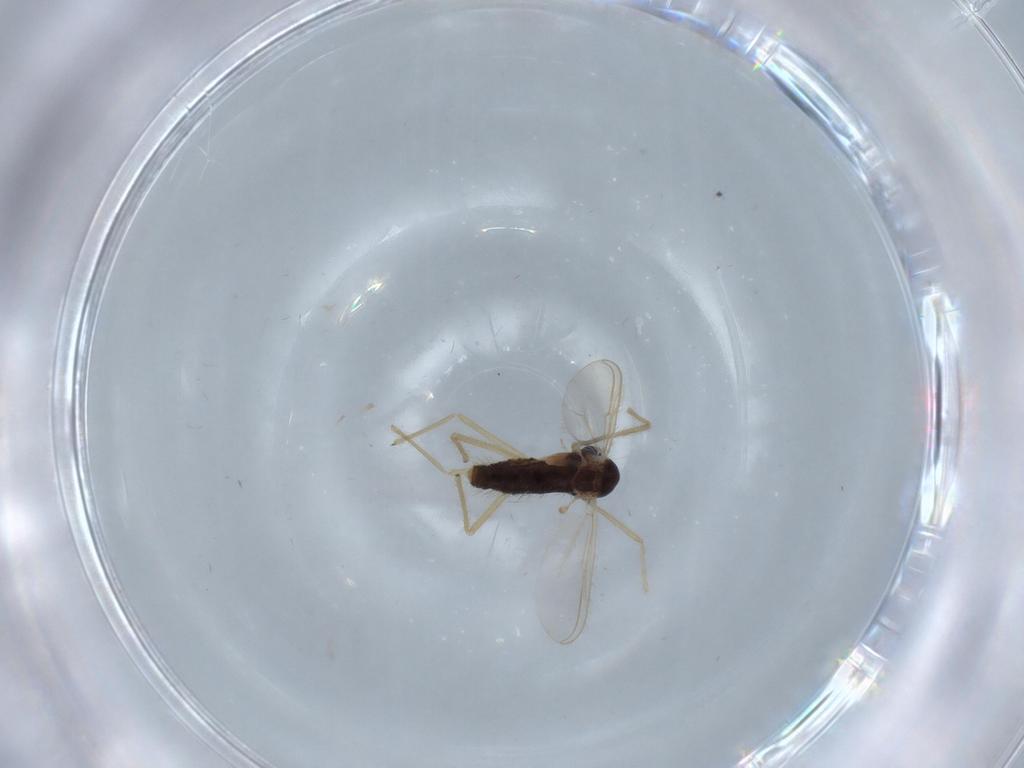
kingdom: Animalia
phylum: Arthropoda
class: Insecta
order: Diptera
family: Chironomidae
